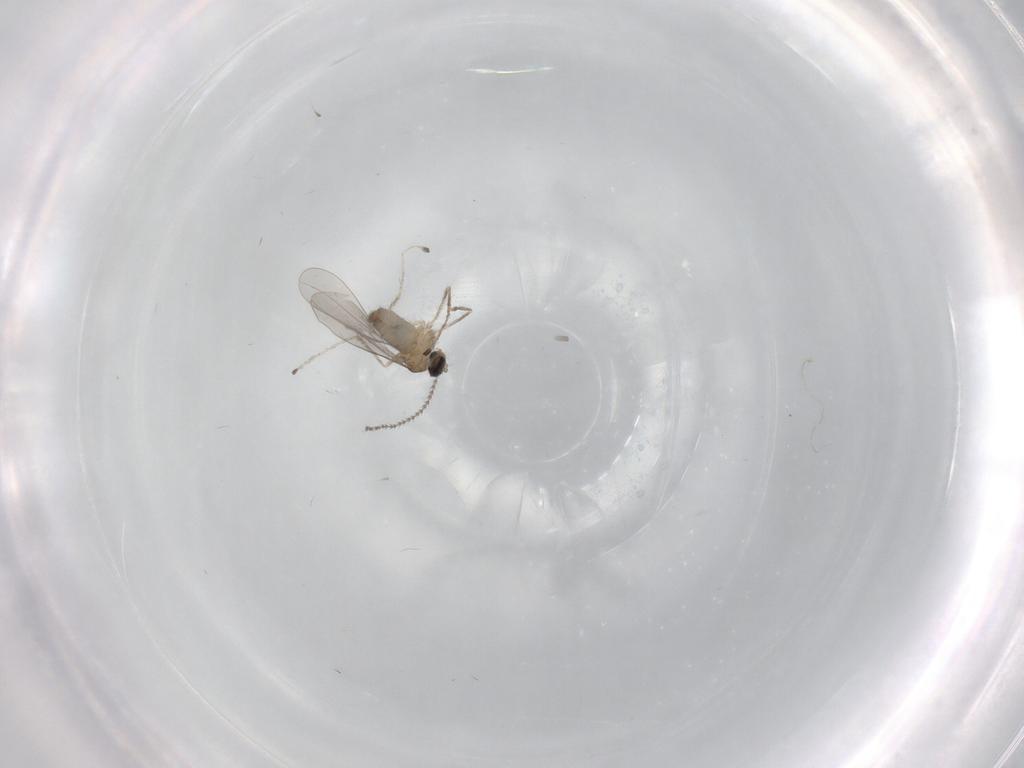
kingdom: Animalia
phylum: Arthropoda
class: Insecta
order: Diptera
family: Cecidomyiidae
